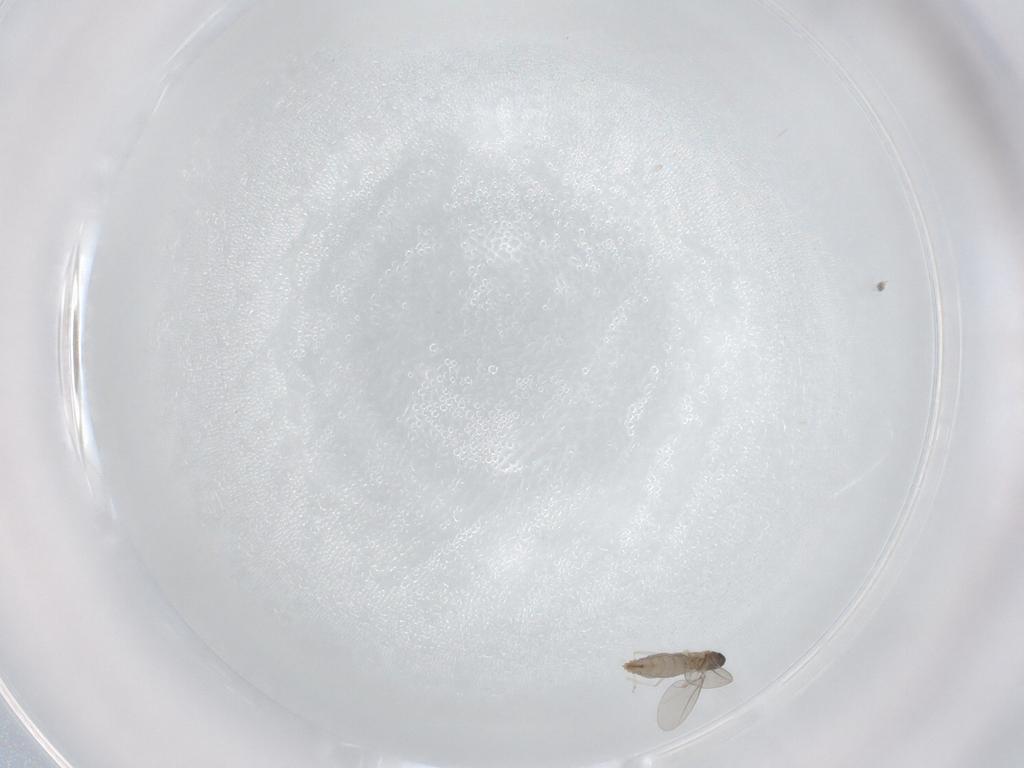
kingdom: Animalia
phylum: Arthropoda
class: Insecta
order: Diptera
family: Cecidomyiidae
